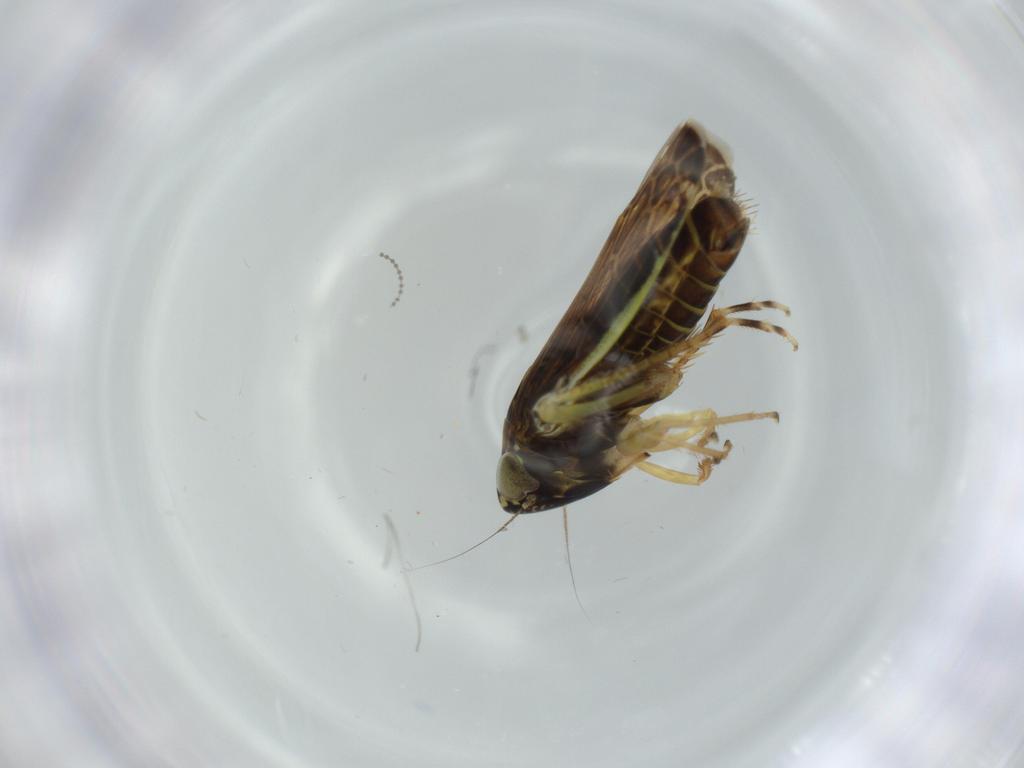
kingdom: Animalia
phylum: Arthropoda
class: Insecta
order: Hemiptera
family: Cicadellidae
